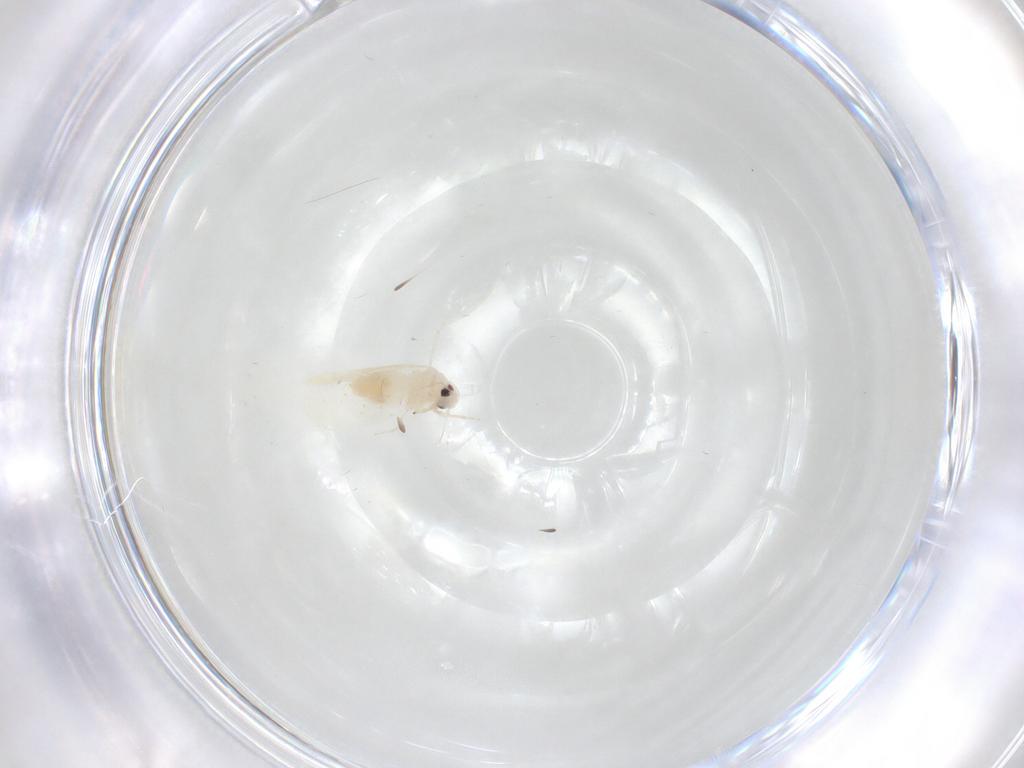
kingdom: Animalia
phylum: Arthropoda
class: Insecta
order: Hemiptera
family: Aleyrodidae
